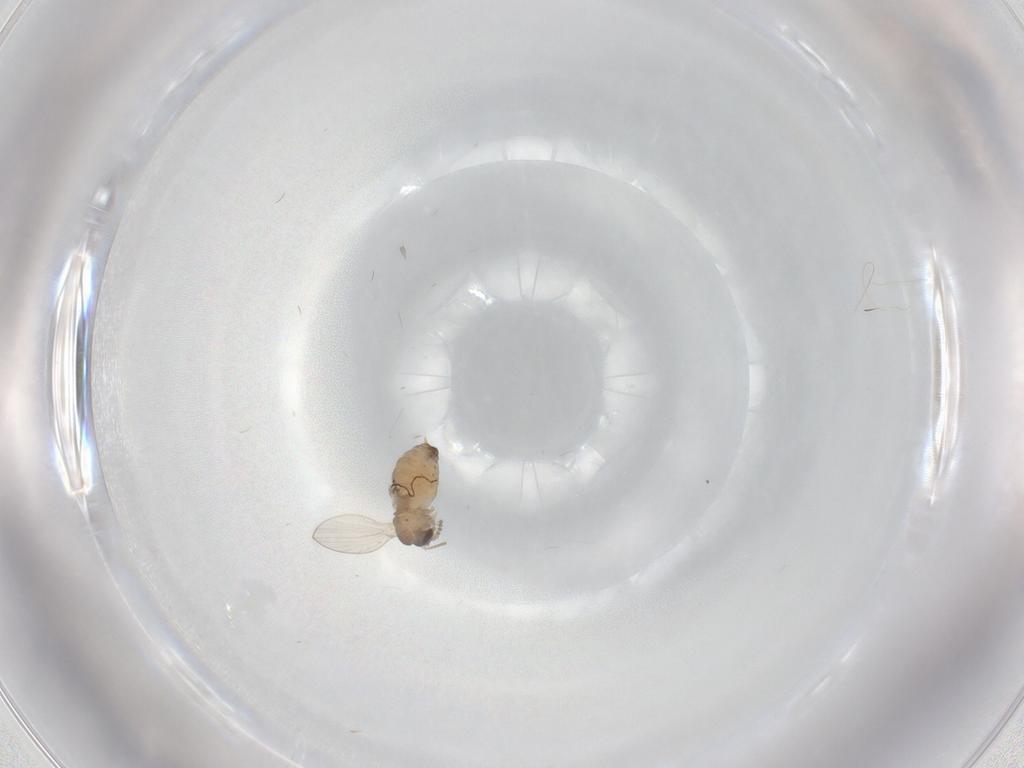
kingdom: Animalia
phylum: Arthropoda
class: Insecta
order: Diptera
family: Psychodidae
